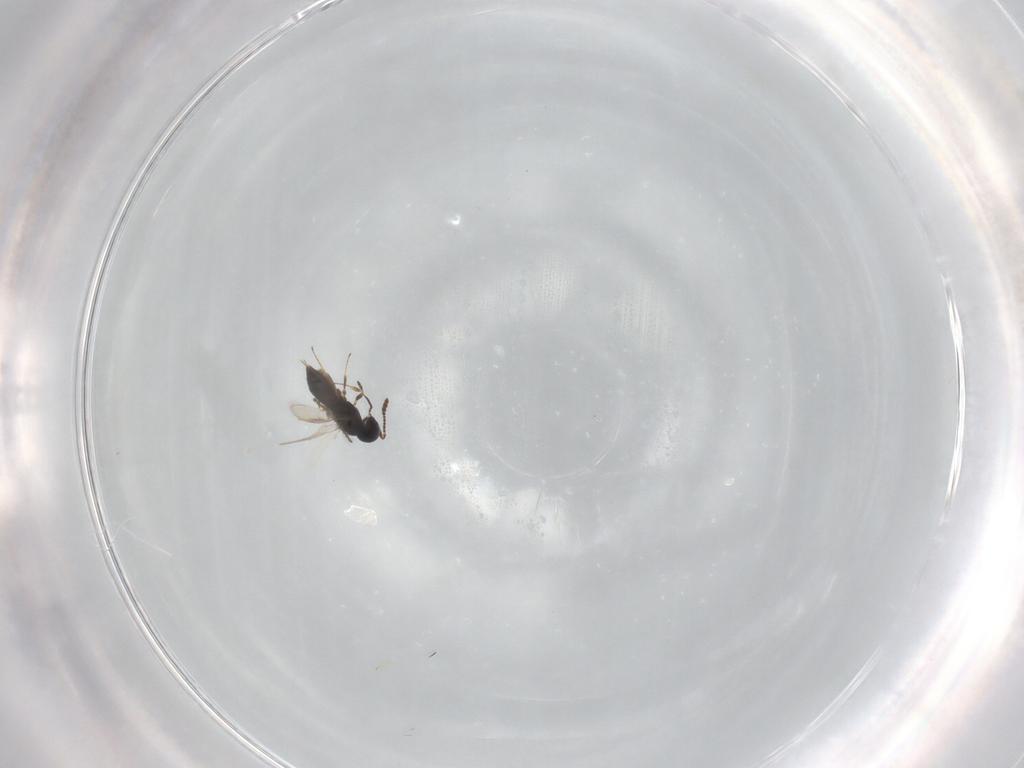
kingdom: Animalia
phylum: Arthropoda
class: Insecta
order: Hymenoptera
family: Scelionidae
